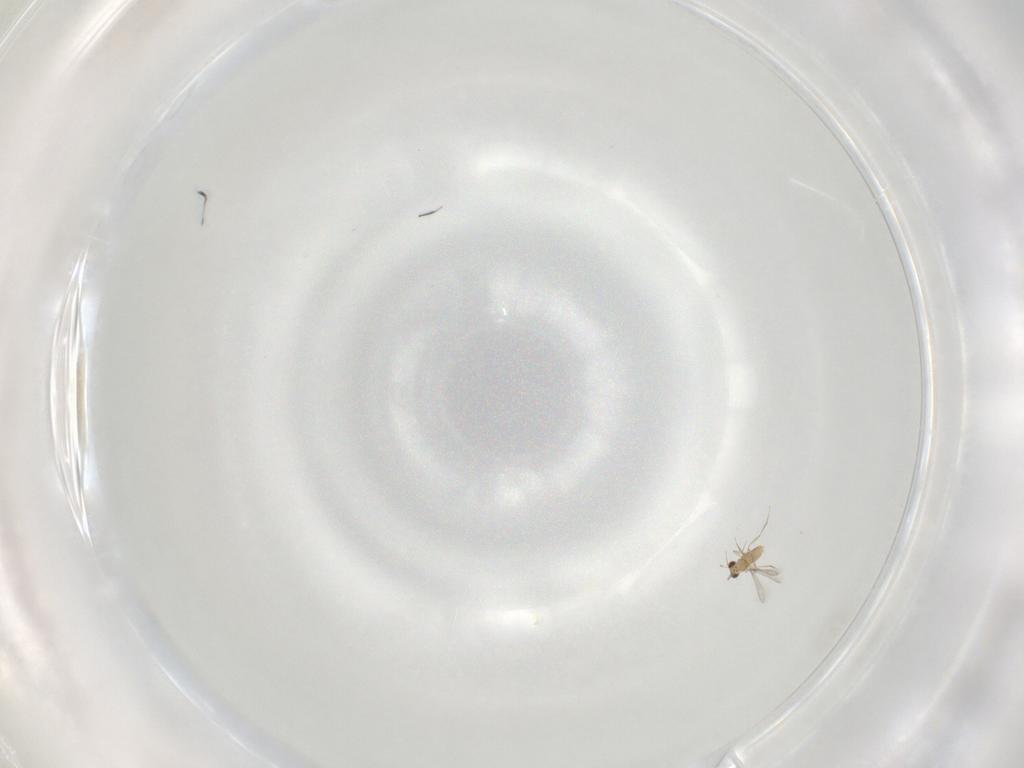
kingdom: Animalia
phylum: Arthropoda
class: Insecta
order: Hymenoptera
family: Mymaridae
